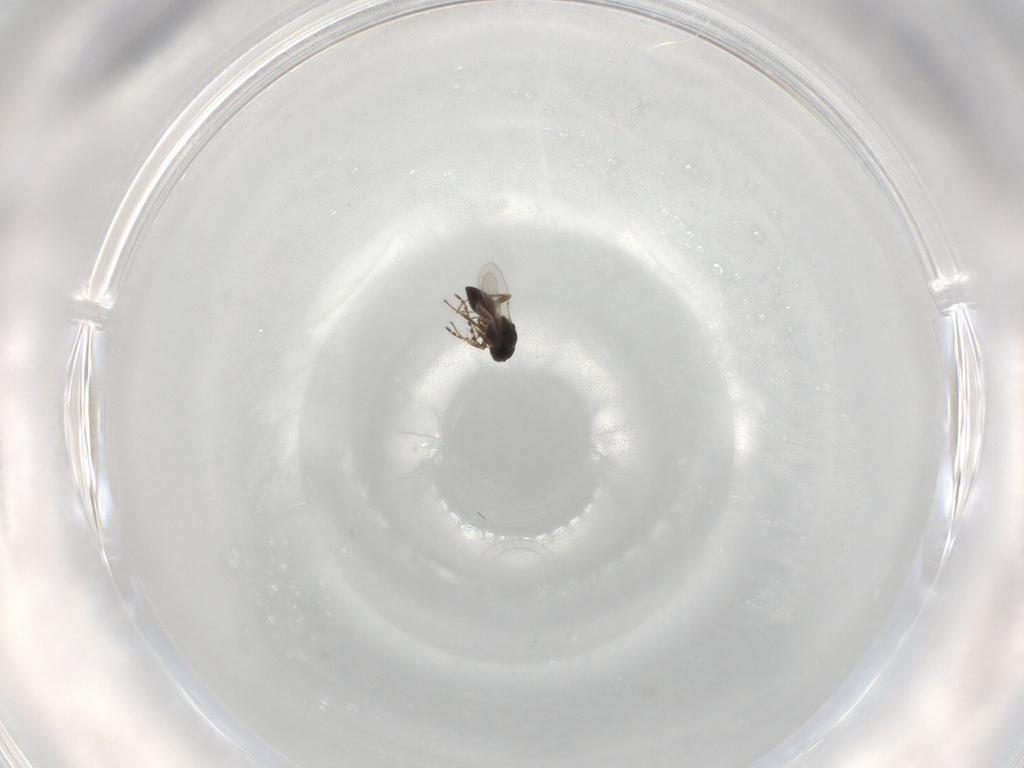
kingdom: Animalia
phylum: Arthropoda
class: Insecta
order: Hymenoptera
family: Platygastridae
